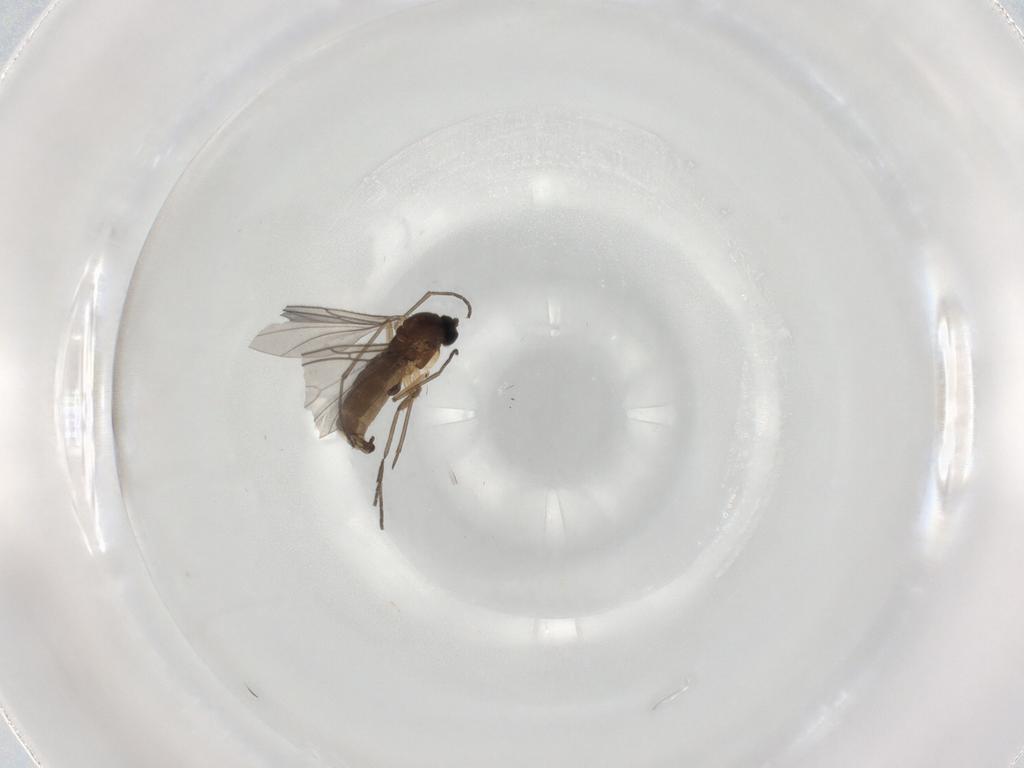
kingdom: Animalia
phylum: Arthropoda
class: Insecta
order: Diptera
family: Sciaridae
